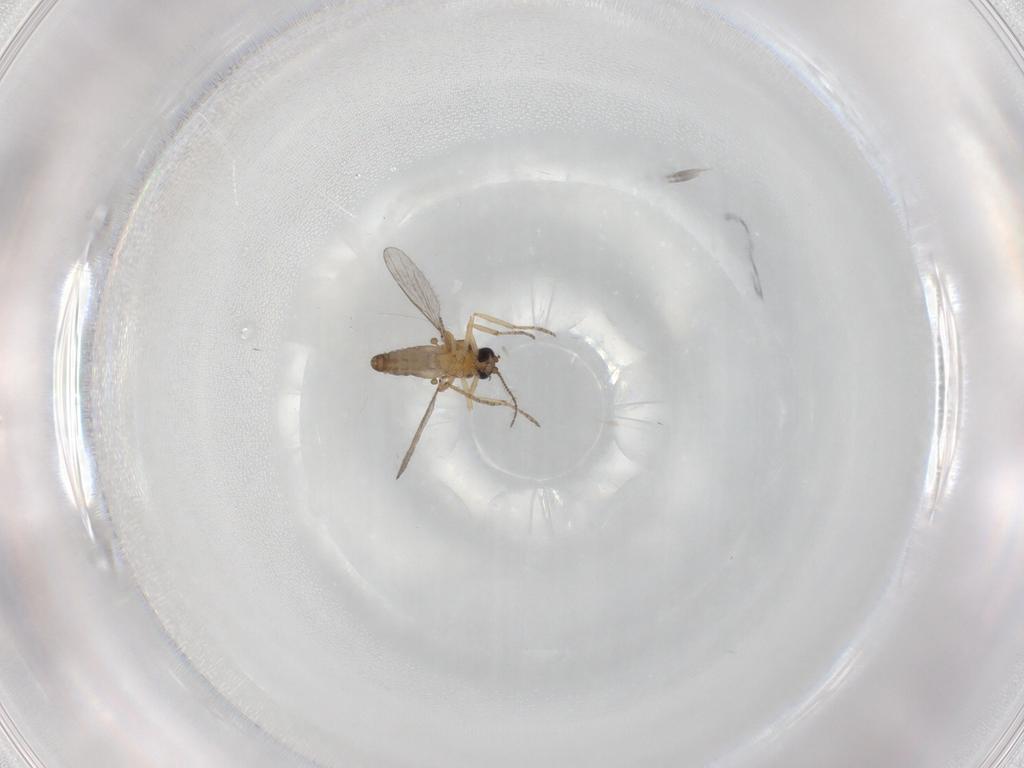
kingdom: Animalia
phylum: Arthropoda
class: Insecta
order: Diptera
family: Ceratopogonidae
